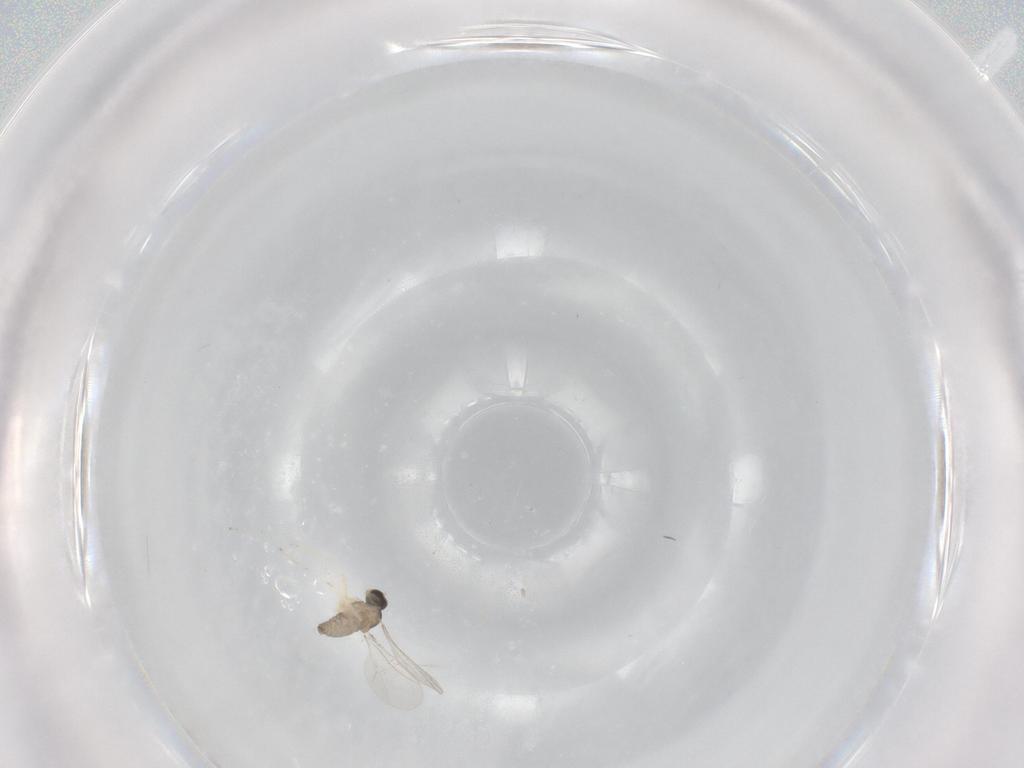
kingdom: Animalia
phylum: Arthropoda
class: Insecta
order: Diptera
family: Cecidomyiidae
